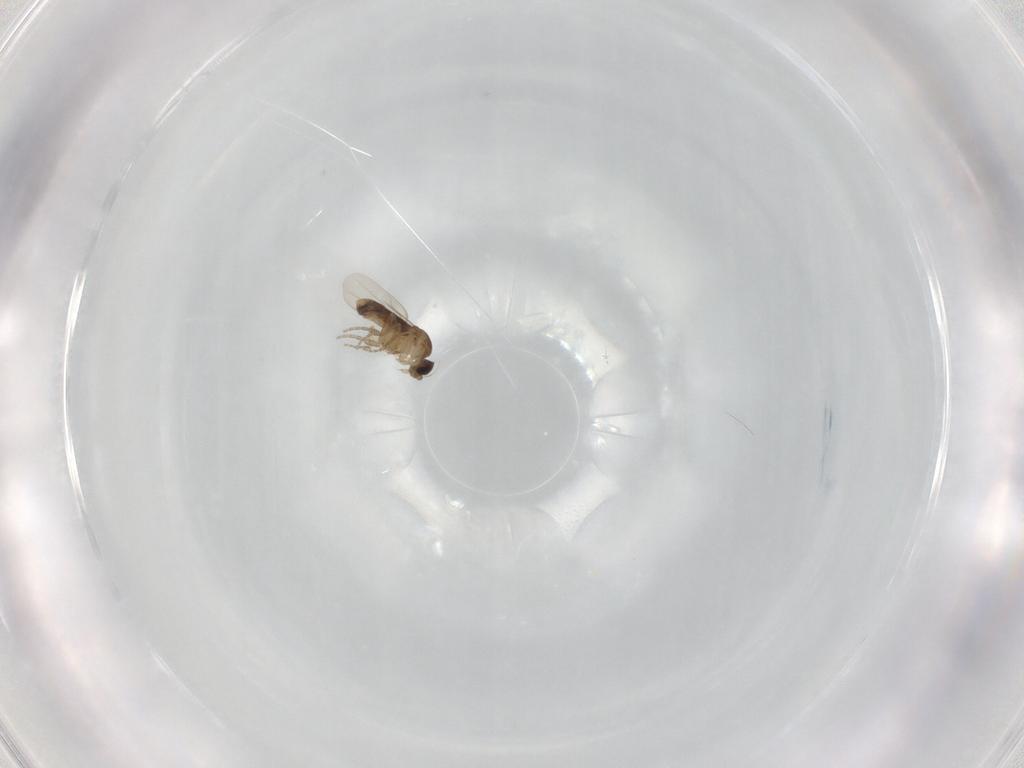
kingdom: Animalia
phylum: Arthropoda
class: Insecta
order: Diptera
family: Phoridae
